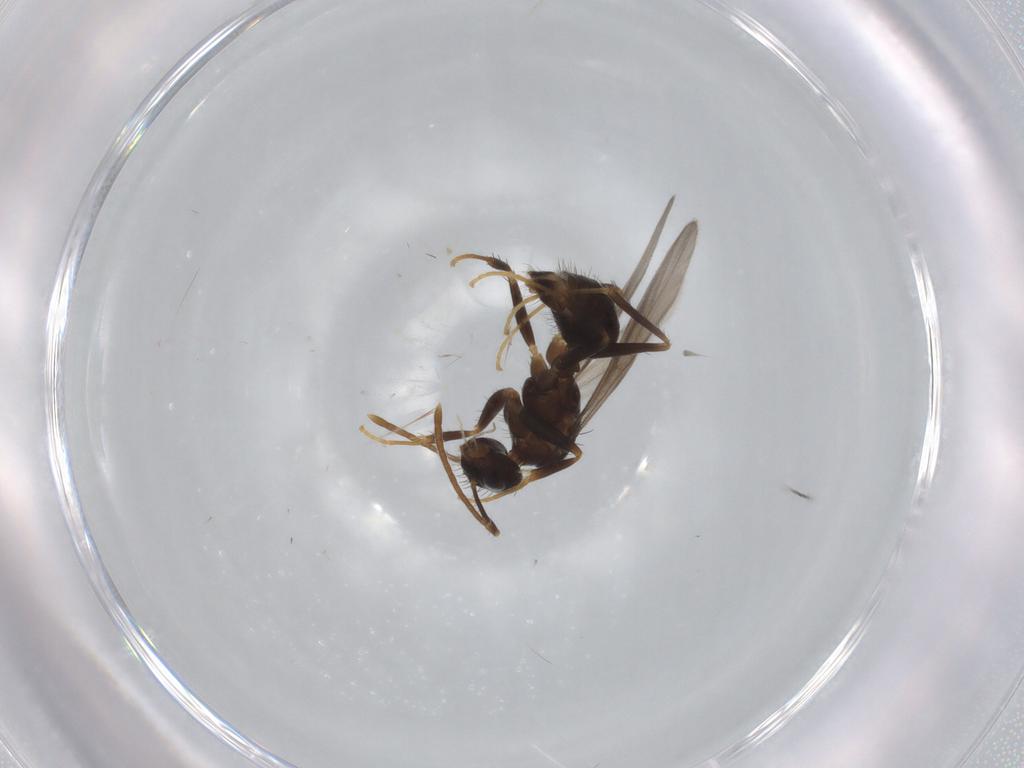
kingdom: Animalia
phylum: Arthropoda
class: Insecta
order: Hymenoptera
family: Formicidae
